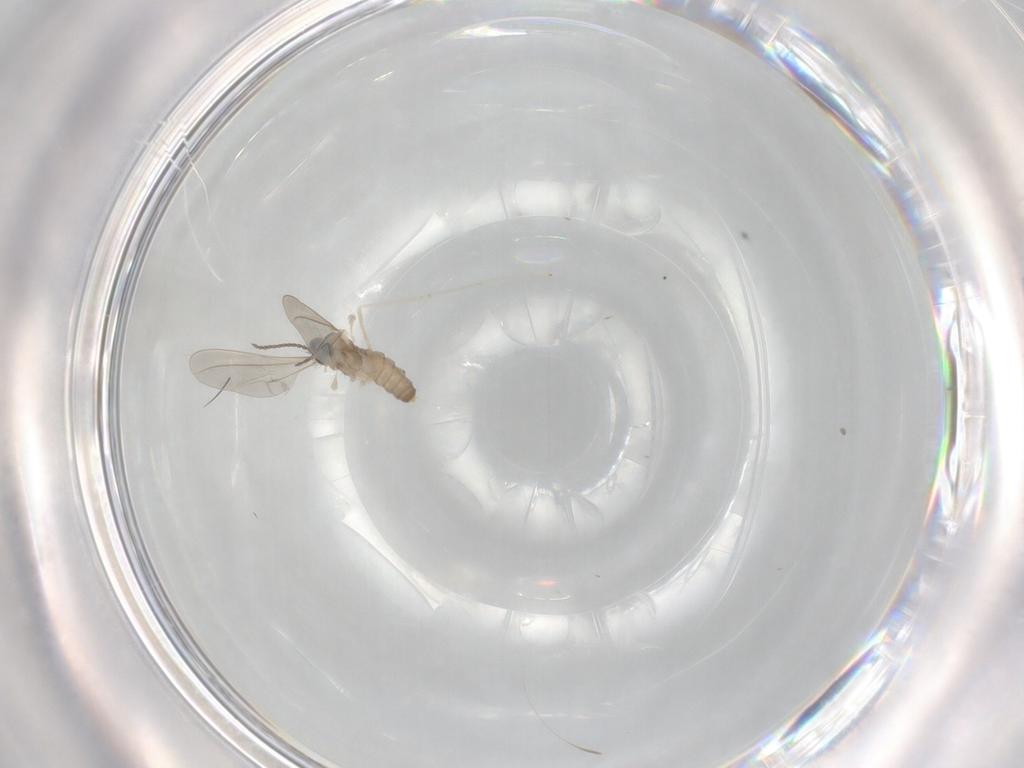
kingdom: Animalia
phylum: Arthropoda
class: Insecta
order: Diptera
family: Cecidomyiidae
